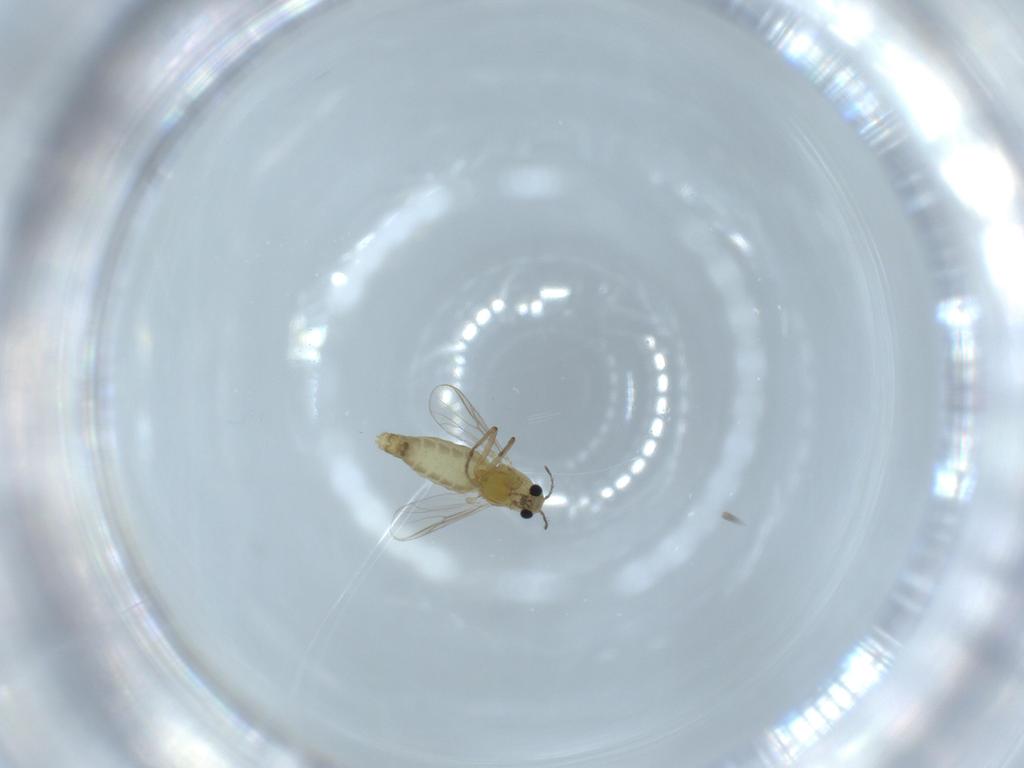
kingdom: Animalia
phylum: Arthropoda
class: Insecta
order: Diptera
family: Chironomidae
